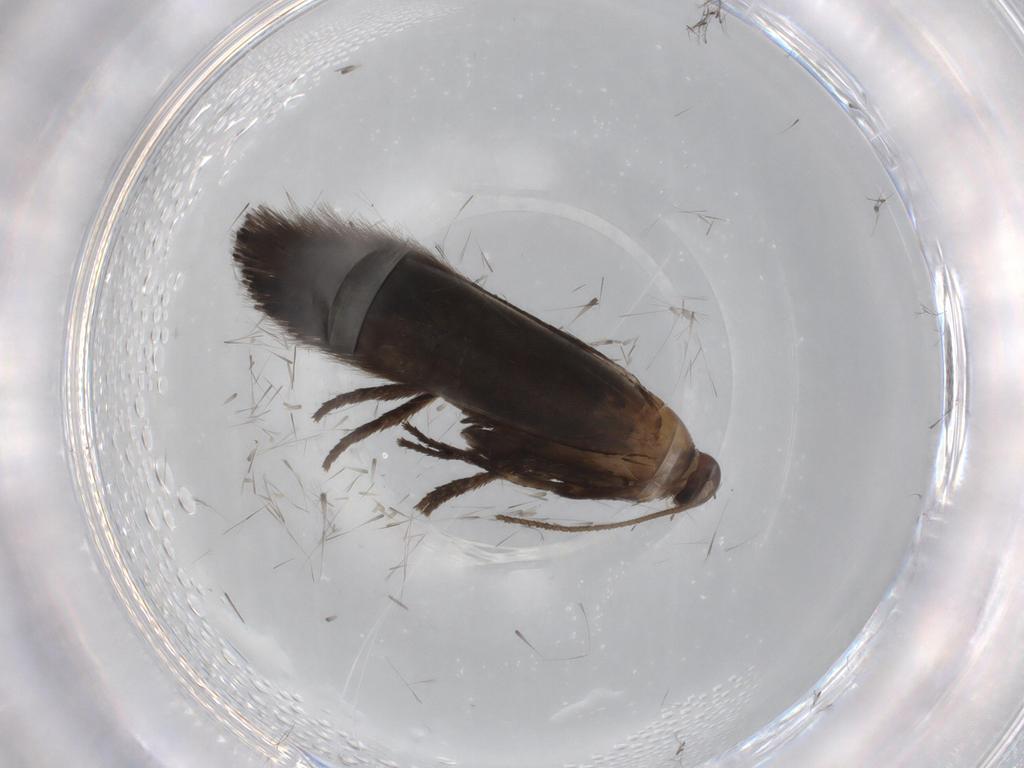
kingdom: Animalia
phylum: Arthropoda
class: Insecta
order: Lepidoptera
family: Heliozelidae
